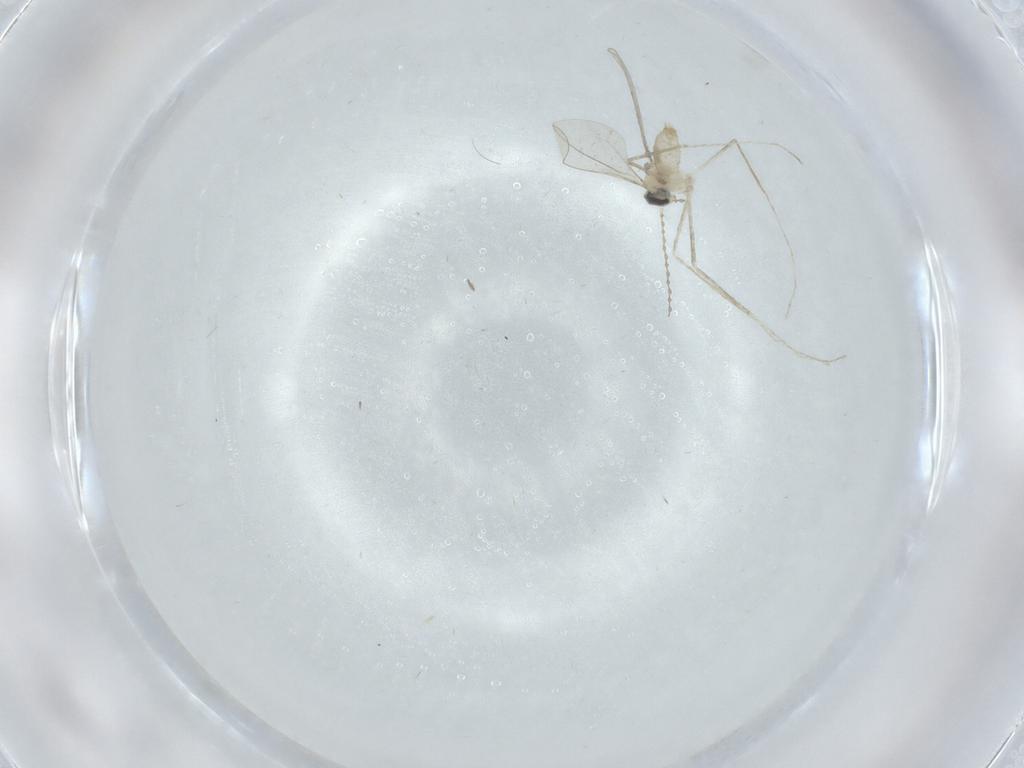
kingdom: Animalia
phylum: Arthropoda
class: Insecta
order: Diptera
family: Cecidomyiidae
